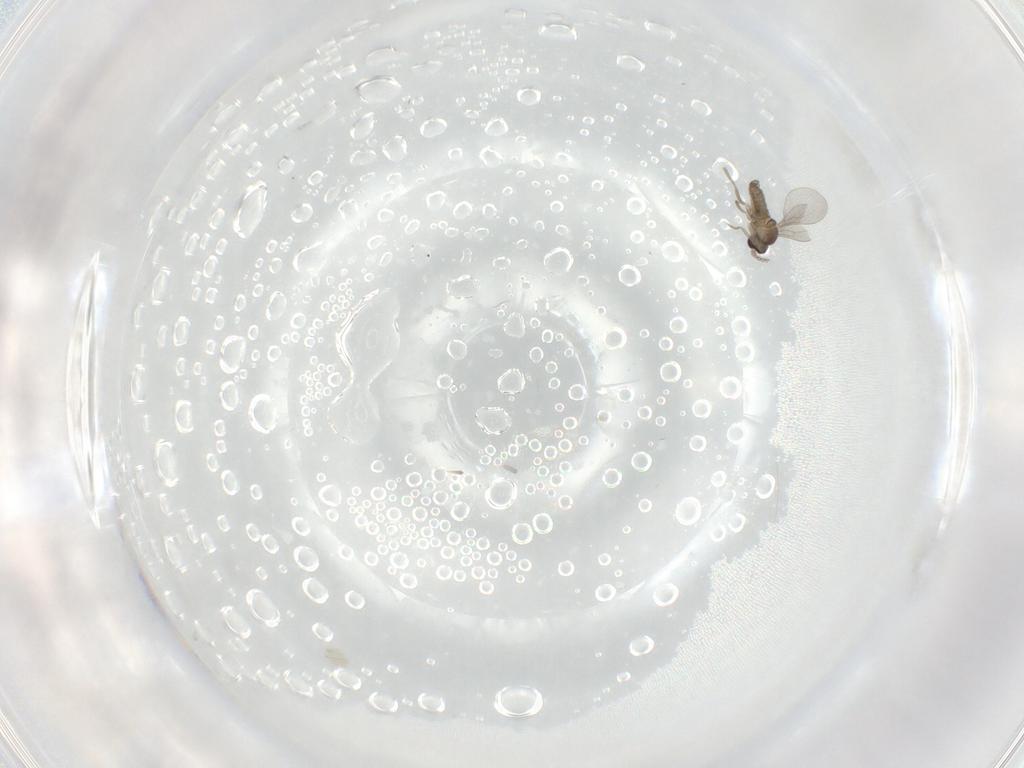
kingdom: Animalia
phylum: Arthropoda
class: Insecta
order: Diptera
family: Cecidomyiidae
